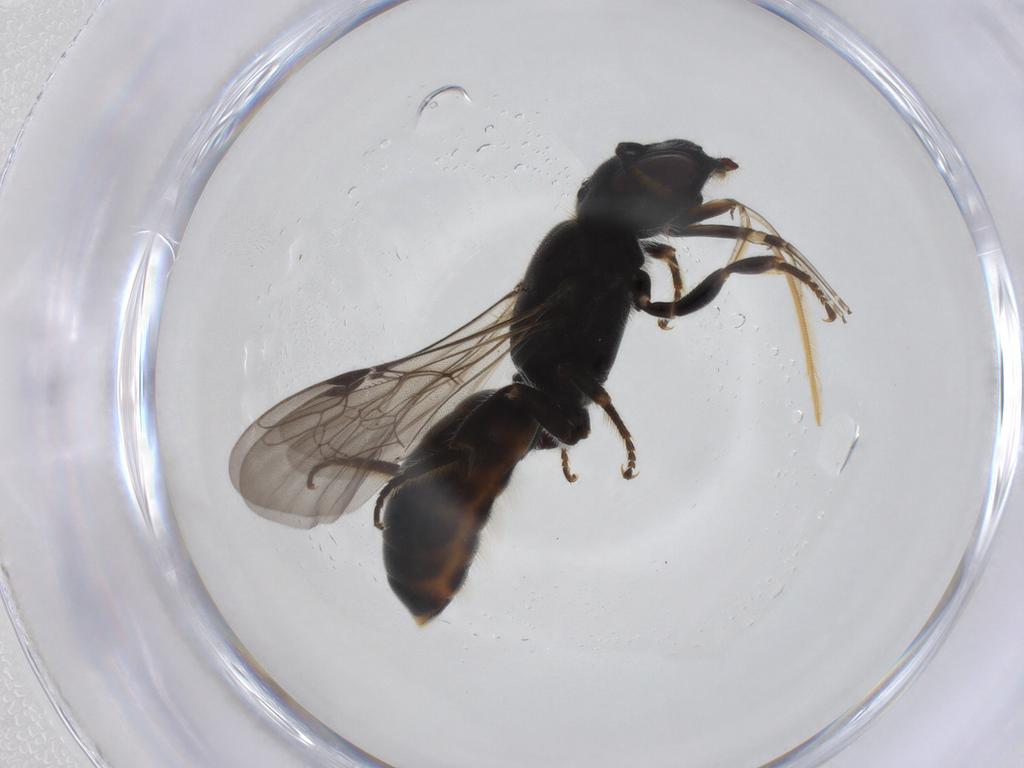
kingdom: Animalia
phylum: Arthropoda
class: Insecta
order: Hymenoptera
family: Megachilidae
